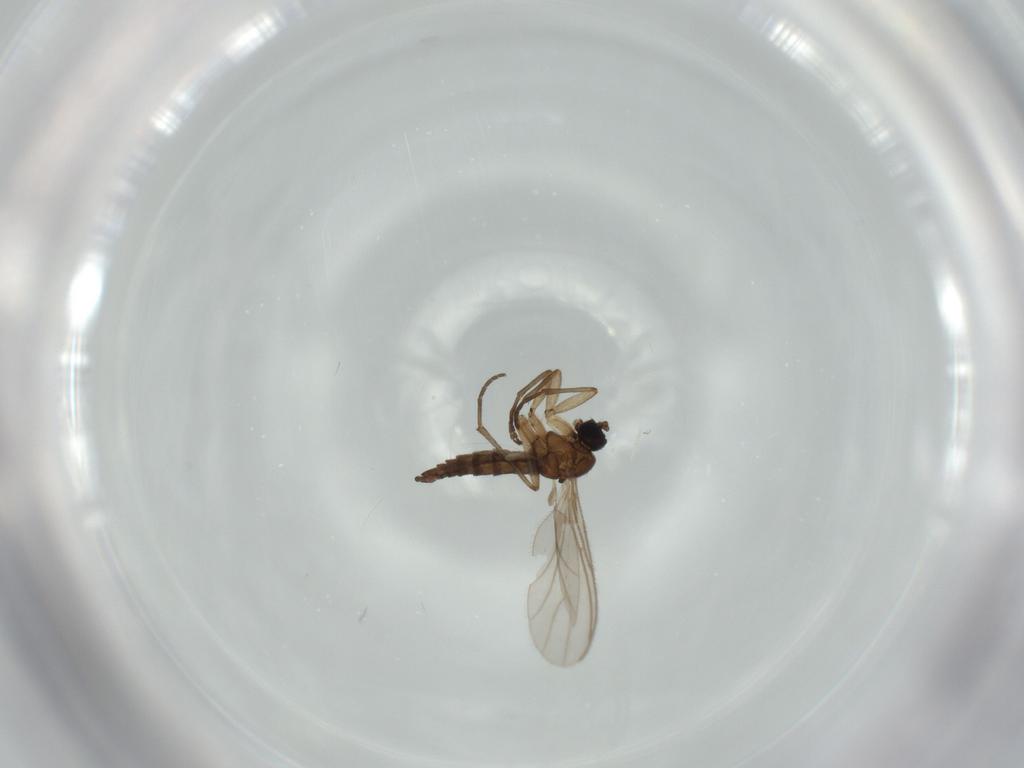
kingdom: Animalia
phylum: Arthropoda
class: Insecta
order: Diptera
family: Sciaridae
